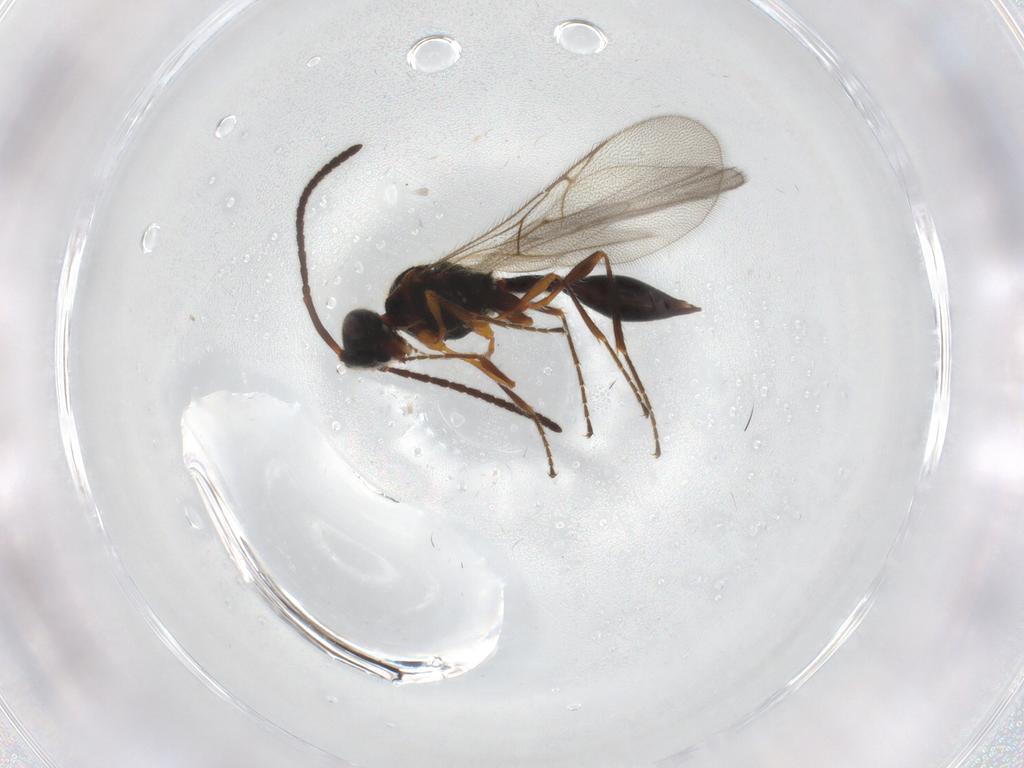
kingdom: Animalia
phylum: Arthropoda
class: Insecta
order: Hymenoptera
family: Diapriidae
